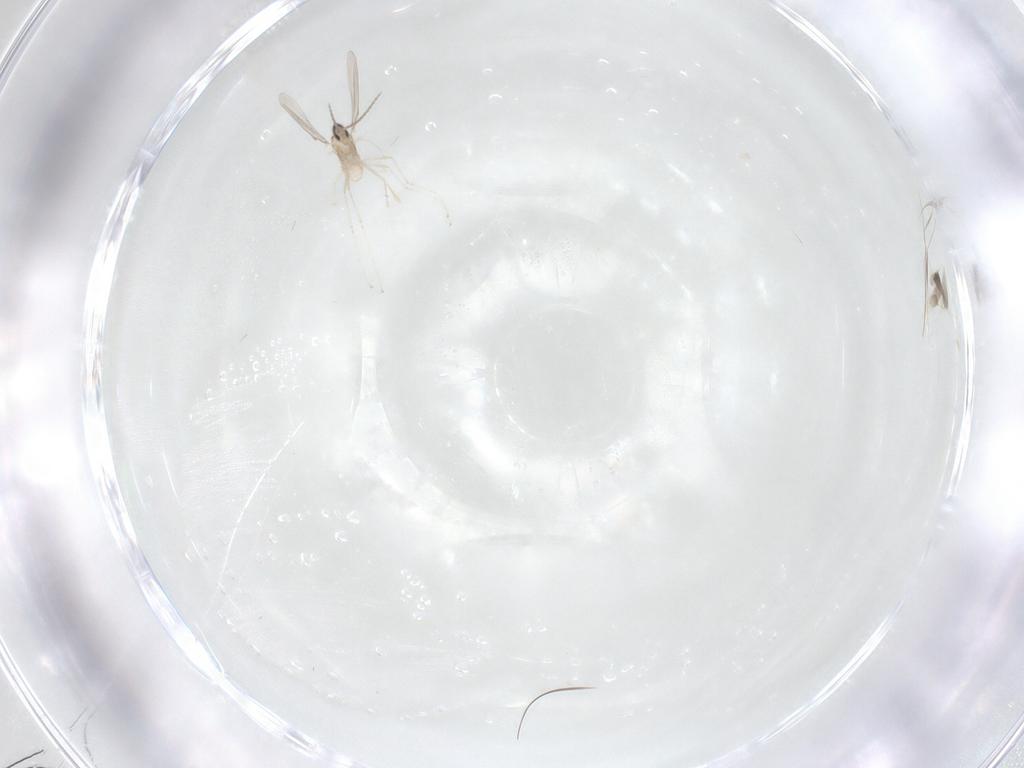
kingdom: Animalia
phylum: Arthropoda
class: Insecta
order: Diptera
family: Cecidomyiidae
